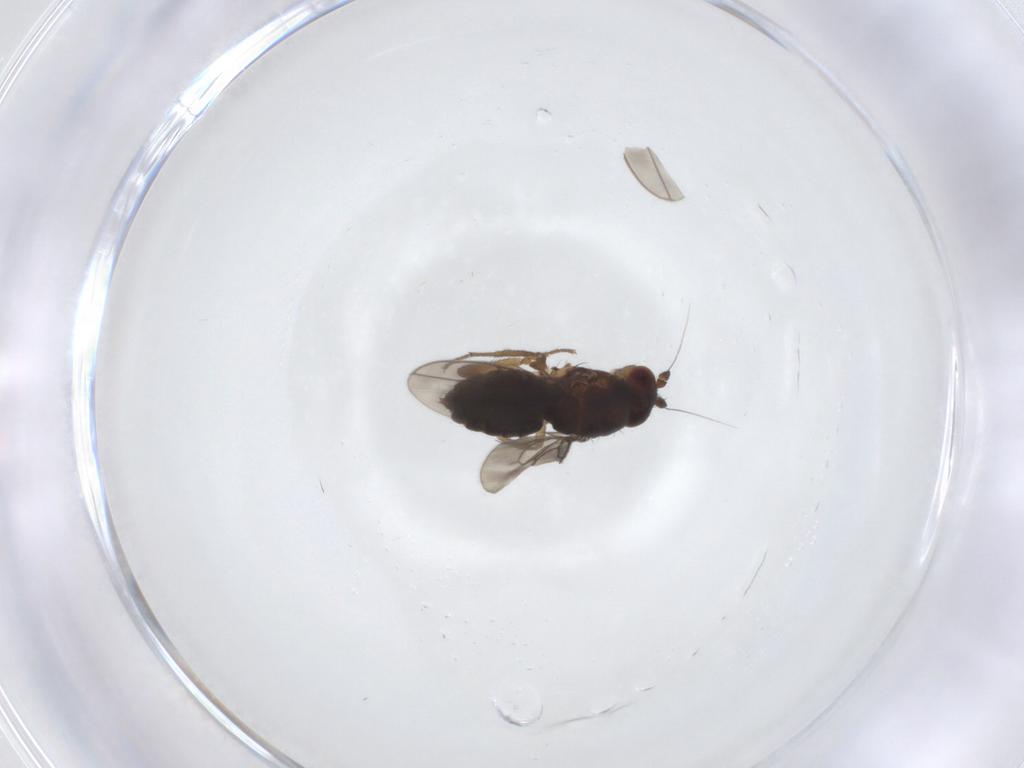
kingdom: Animalia
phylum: Arthropoda
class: Insecta
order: Diptera
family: Sphaeroceridae
